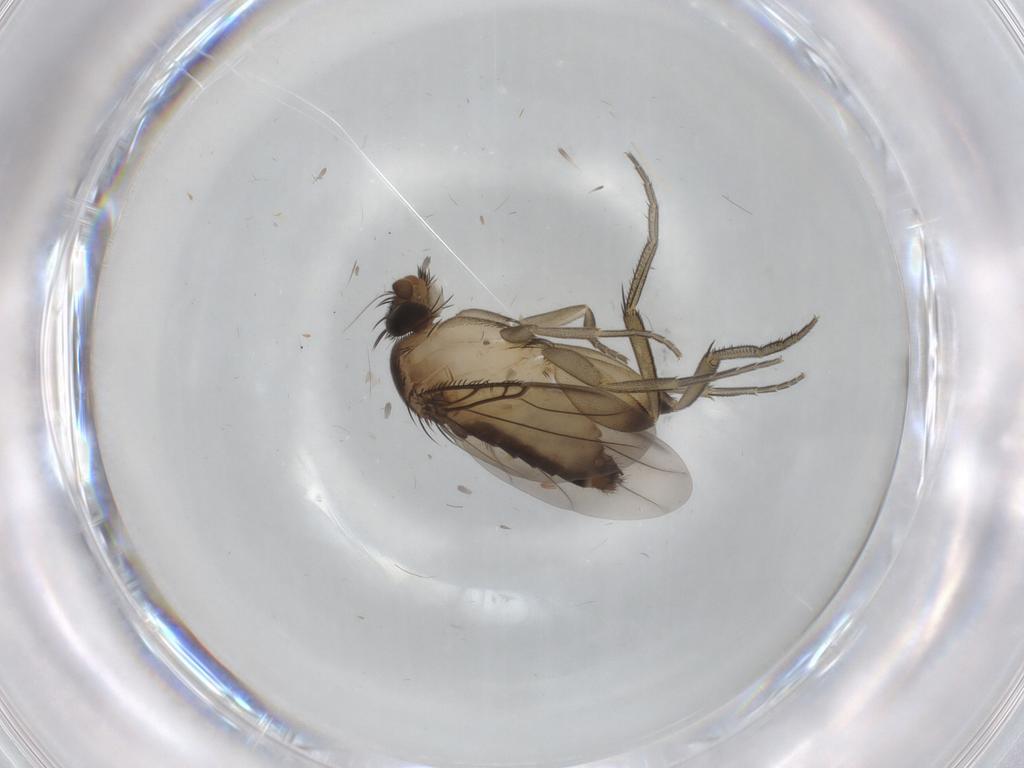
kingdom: Animalia
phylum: Arthropoda
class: Insecta
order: Diptera
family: Phoridae
